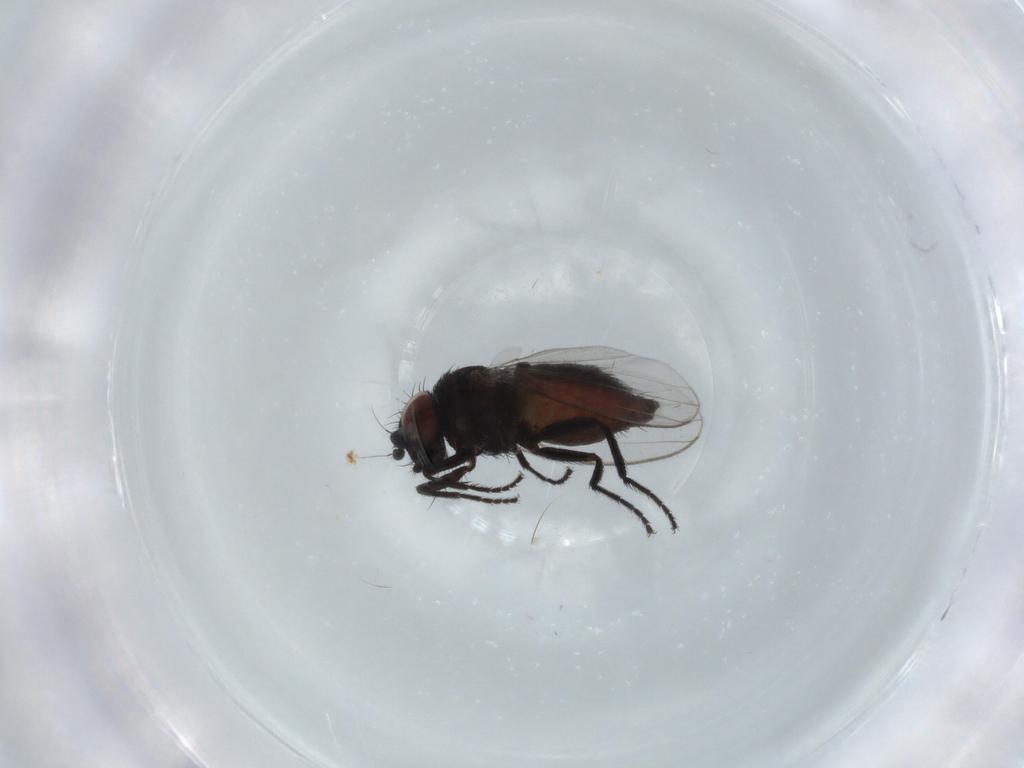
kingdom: Animalia
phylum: Arthropoda
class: Insecta
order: Diptera
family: Milichiidae
